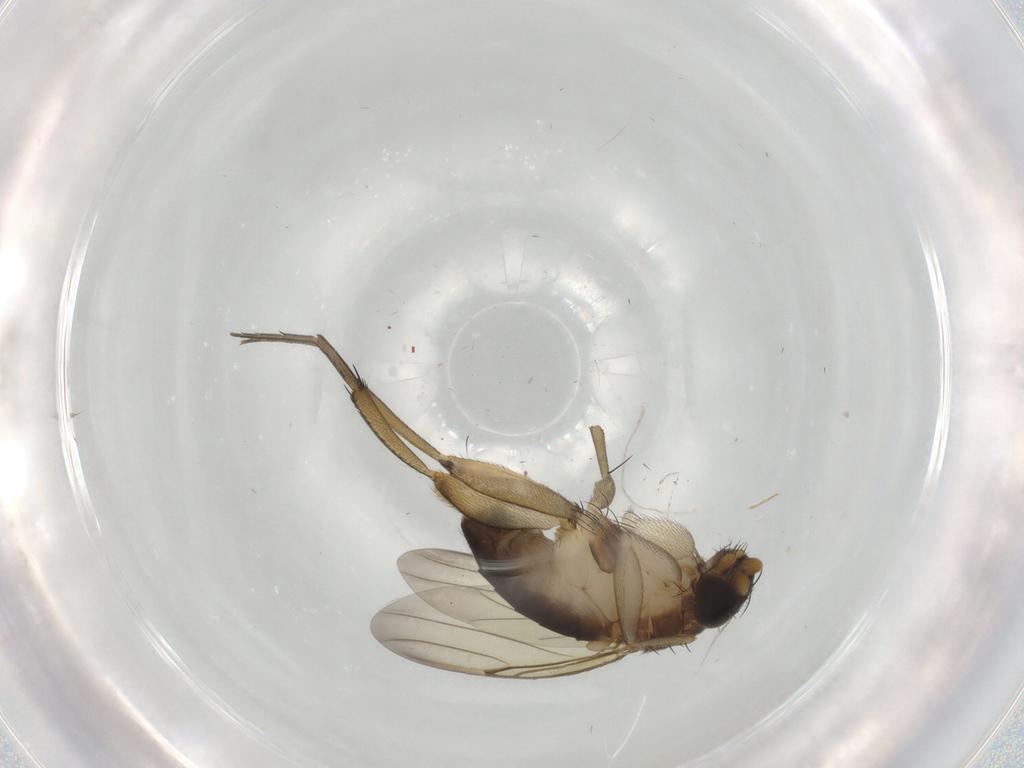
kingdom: Animalia
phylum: Arthropoda
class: Insecta
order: Diptera
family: Phoridae
